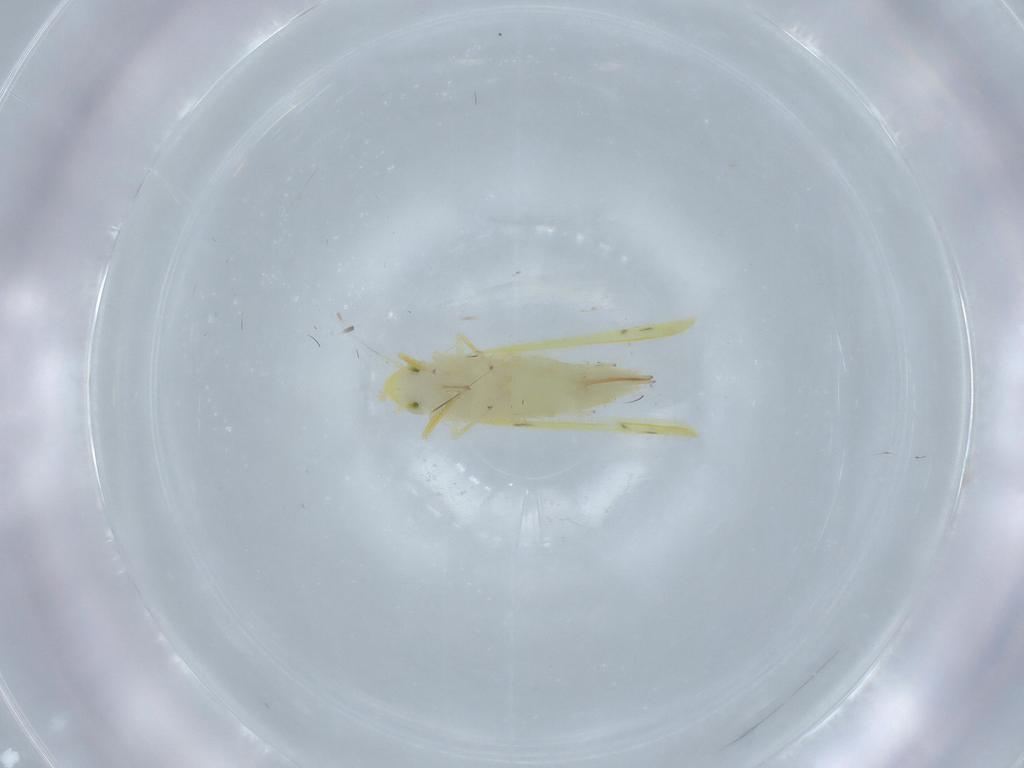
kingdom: Animalia
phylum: Arthropoda
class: Insecta
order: Hemiptera
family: Cicadellidae
